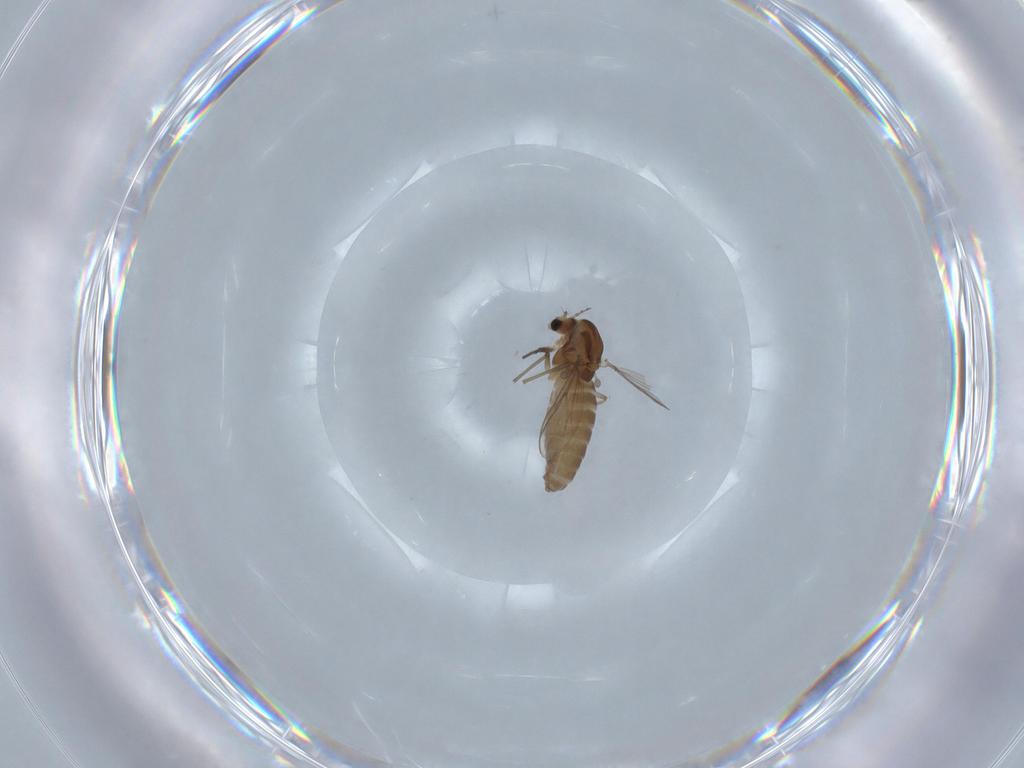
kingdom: Animalia
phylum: Arthropoda
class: Insecta
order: Diptera
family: Chironomidae
